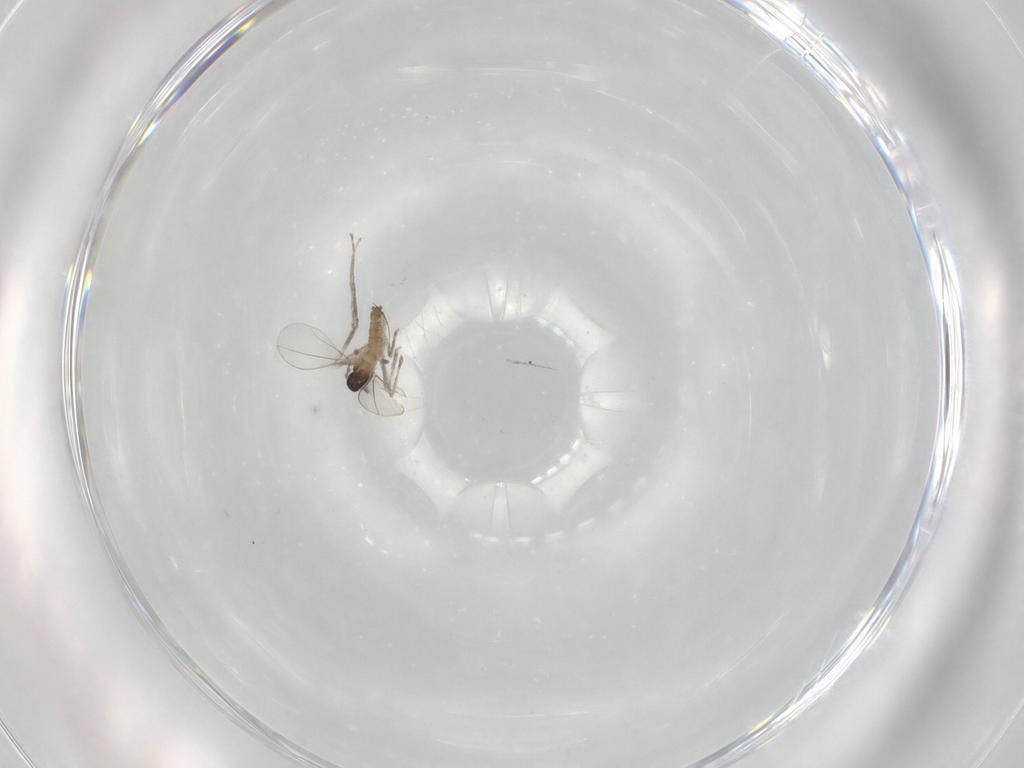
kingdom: Animalia
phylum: Arthropoda
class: Insecta
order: Diptera
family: Cecidomyiidae
